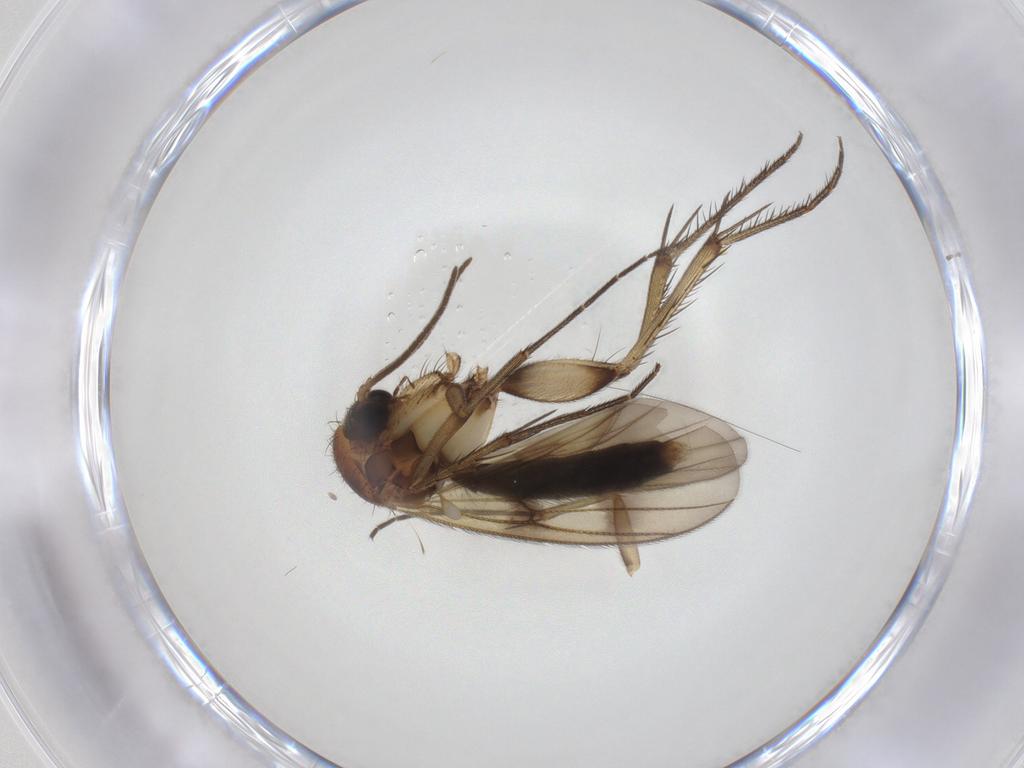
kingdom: Animalia
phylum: Arthropoda
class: Insecta
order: Diptera
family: Mycetophilidae
